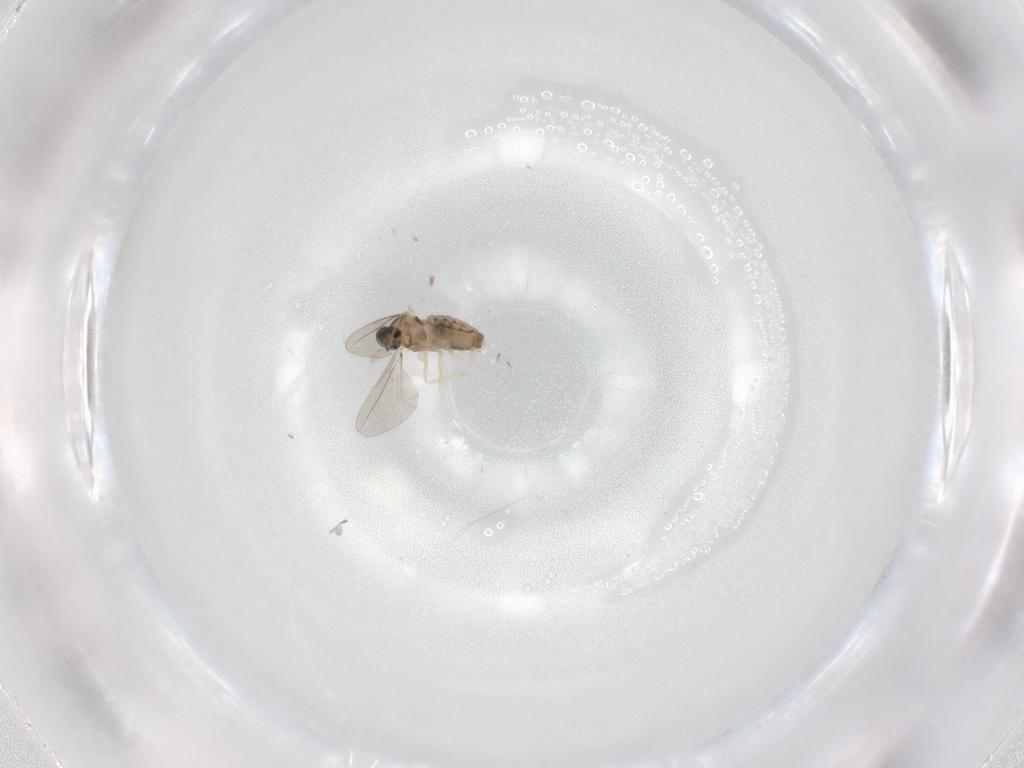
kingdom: Animalia
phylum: Arthropoda
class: Insecta
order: Diptera
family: Cecidomyiidae
